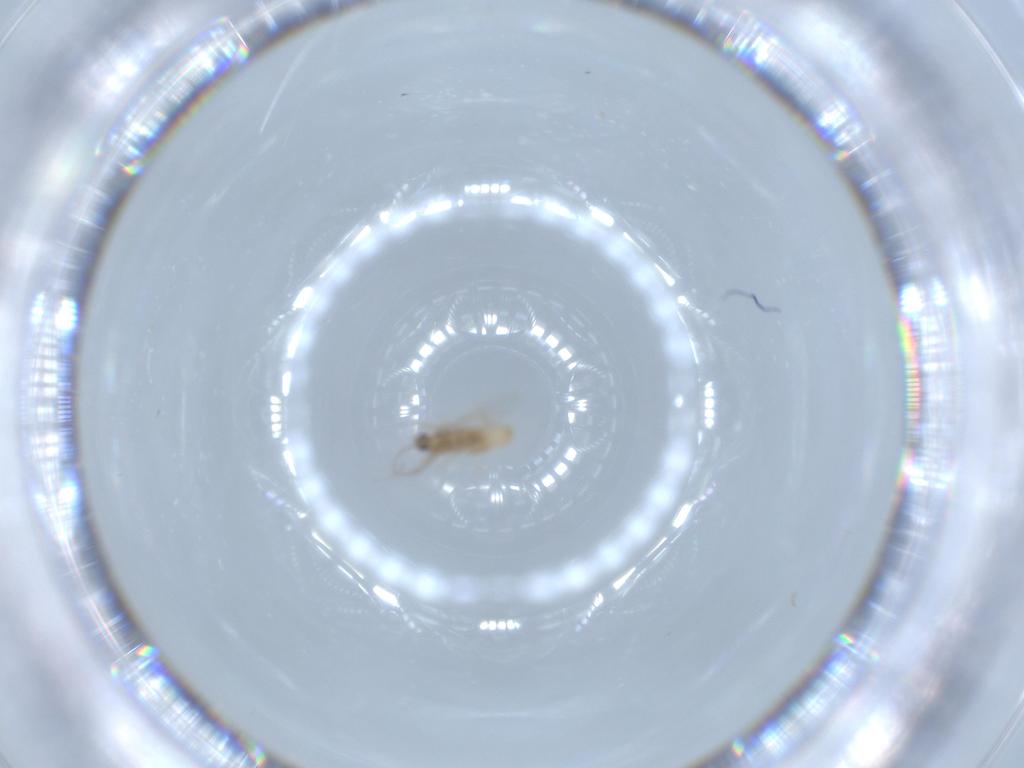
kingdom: Animalia
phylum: Arthropoda
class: Insecta
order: Diptera
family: Cecidomyiidae
